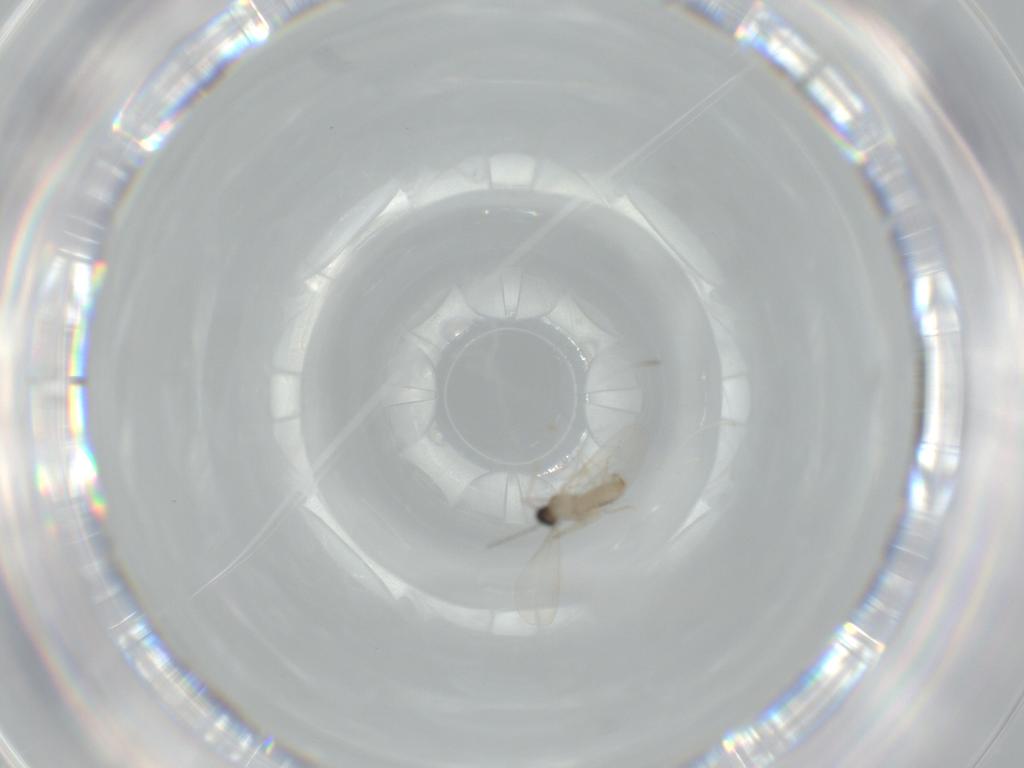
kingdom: Animalia
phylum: Arthropoda
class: Insecta
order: Diptera
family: Cecidomyiidae
